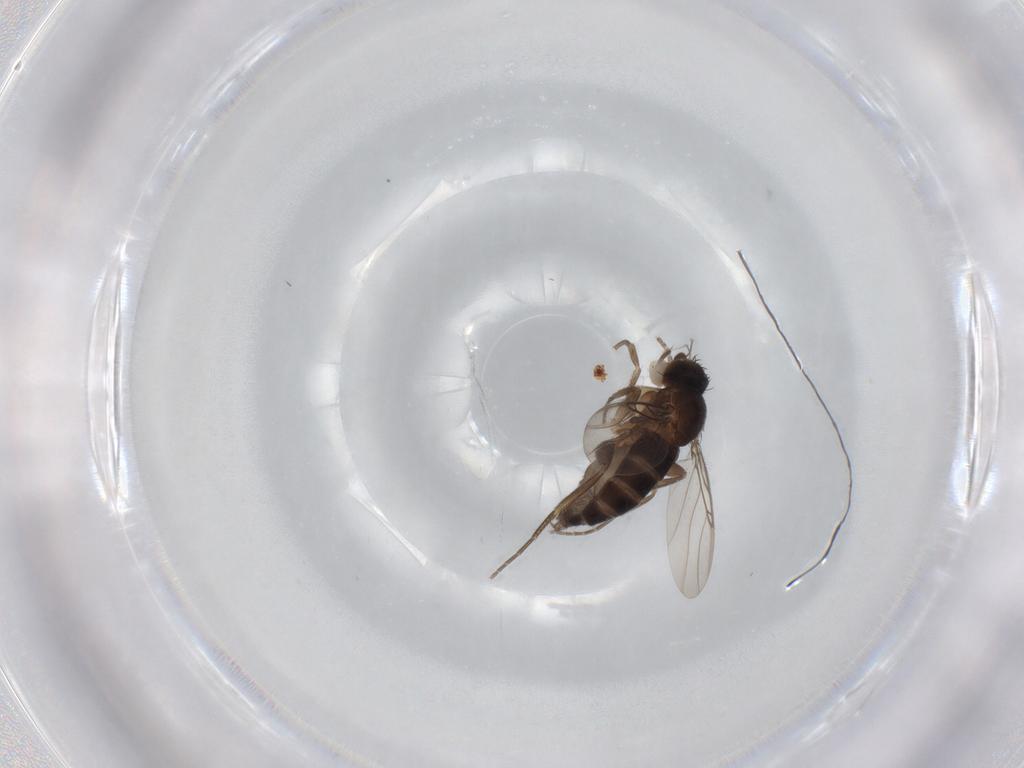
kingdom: Animalia
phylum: Arthropoda
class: Insecta
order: Diptera
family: Phoridae
